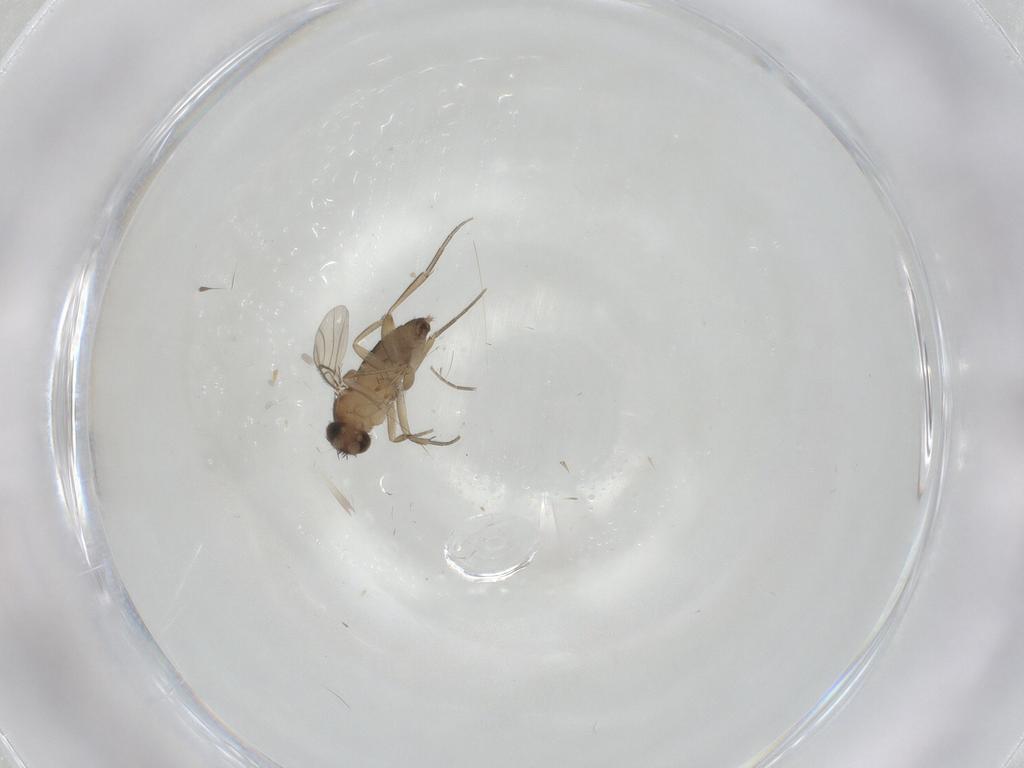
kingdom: Animalia
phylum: Arthropoda
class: Insecta
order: Diptera
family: Phoridae
